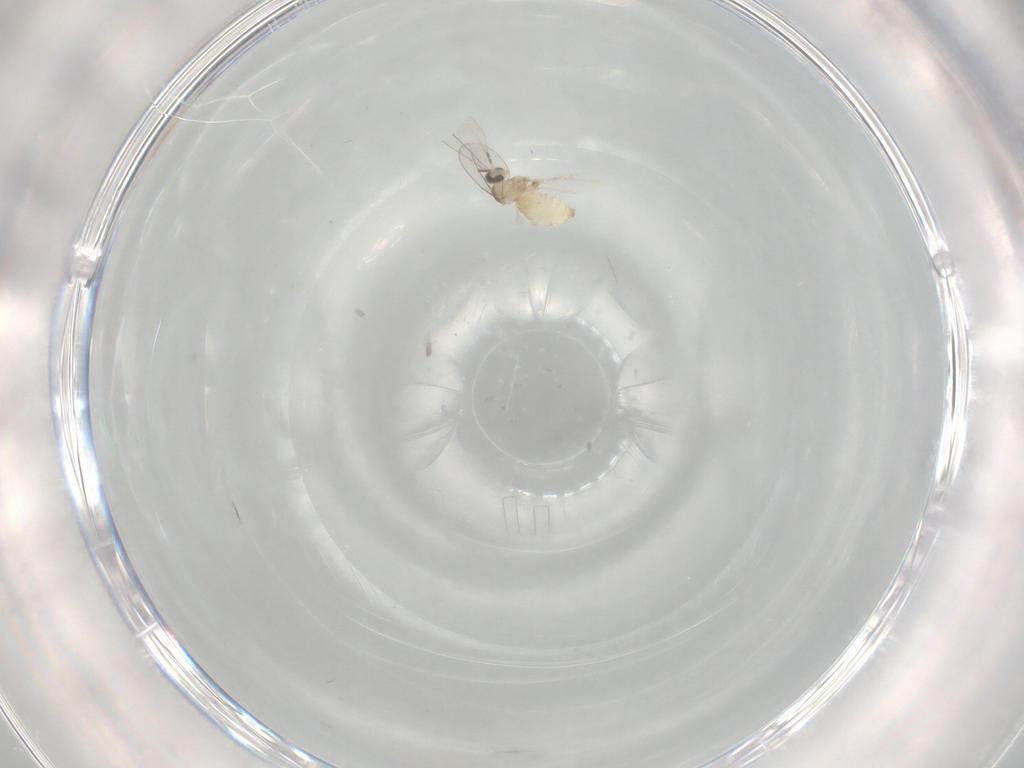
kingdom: Animalia
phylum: Arthropoda
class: Insecta
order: Diptera
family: Cecidomyiidae
